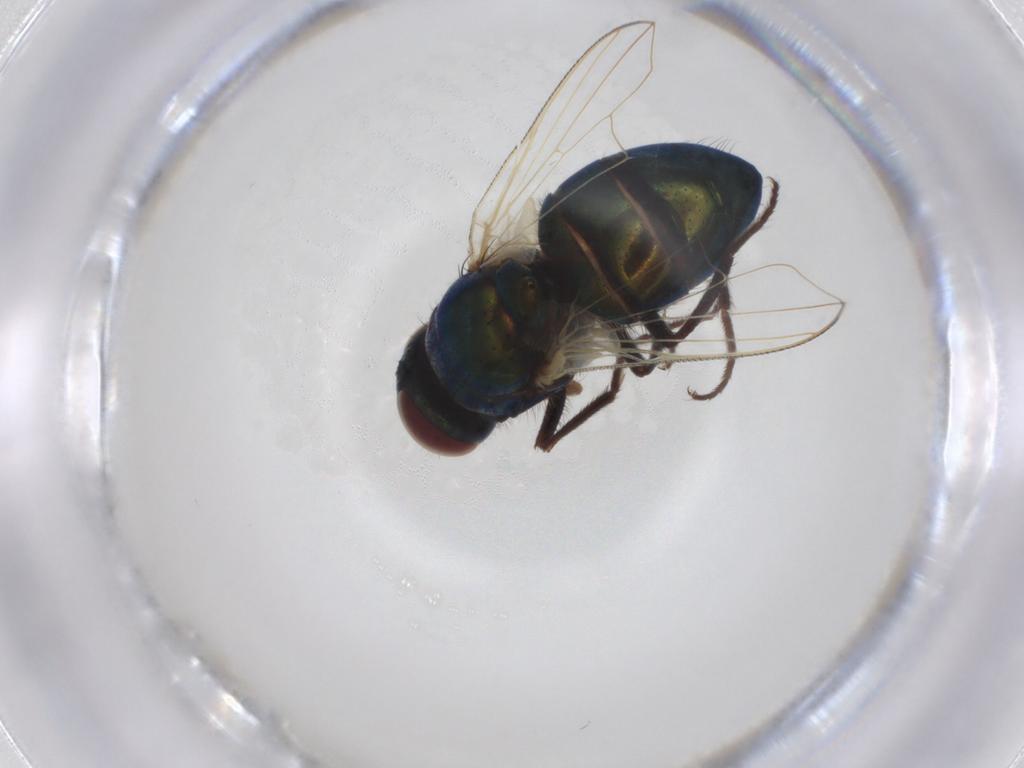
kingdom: Animalia
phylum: Arthropoda
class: Insecta
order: Diptera
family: Muscidae
